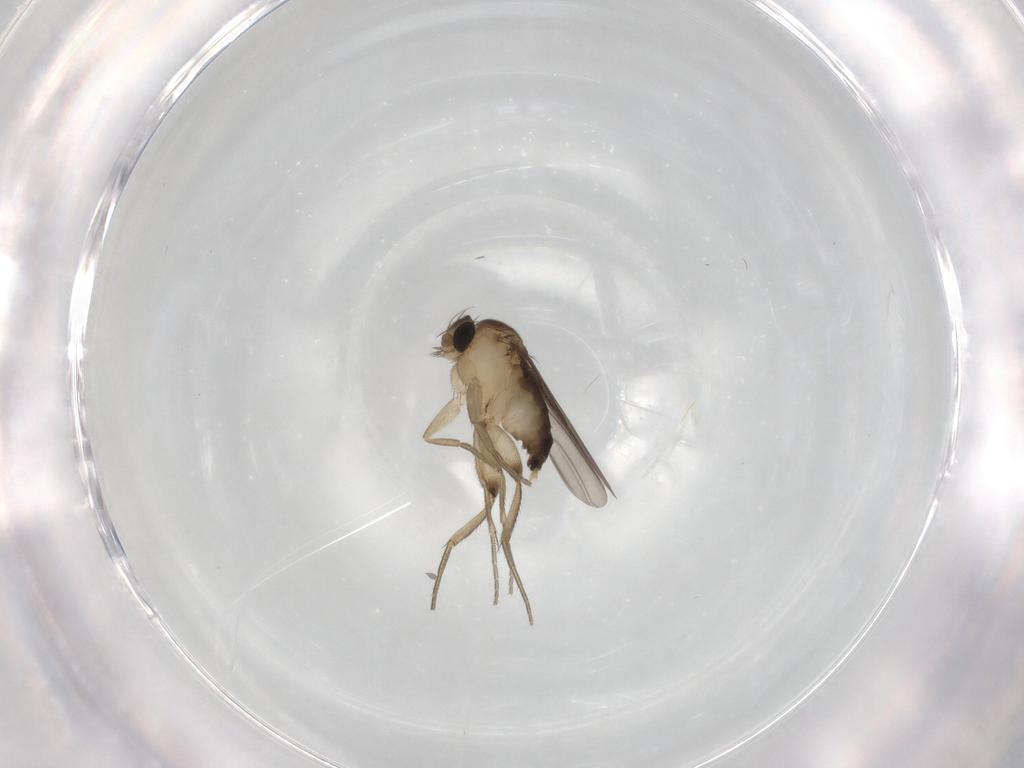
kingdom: Animalia
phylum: Arthropoda
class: Insecta
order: Diptera
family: Phoridae
